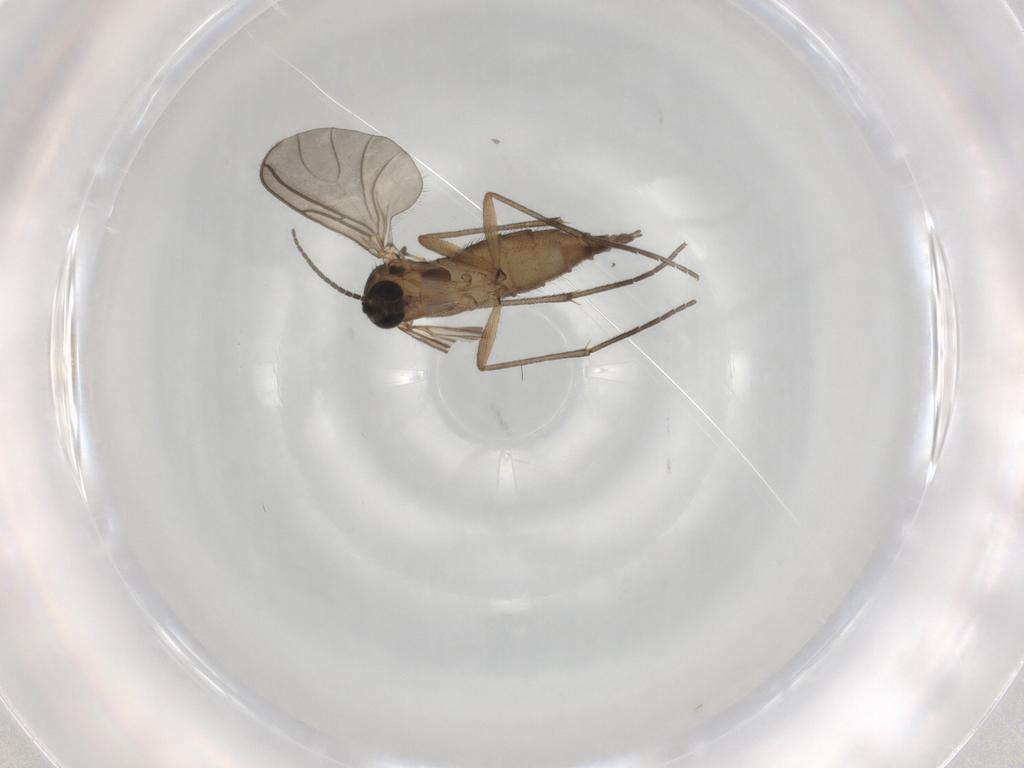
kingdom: Animalia
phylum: Arthropoda
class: Insecta
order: Diptera
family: Sciaridae
